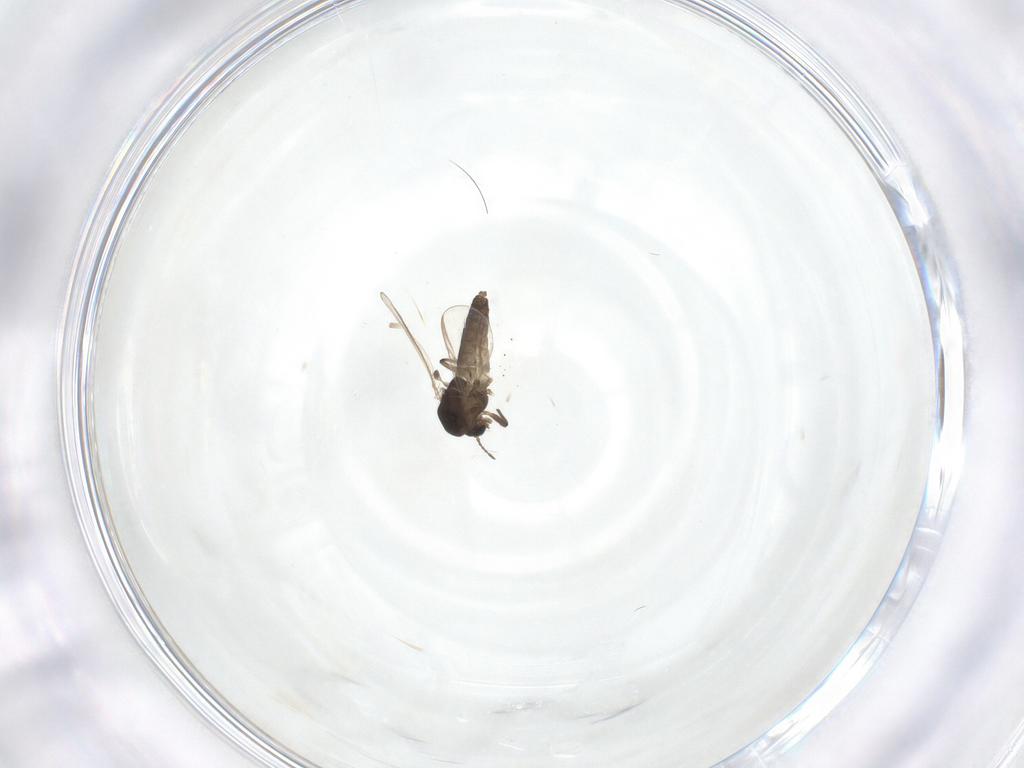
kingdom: Animalia
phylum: Arthropoda
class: Insecta
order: Diptera
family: Chironomidae
